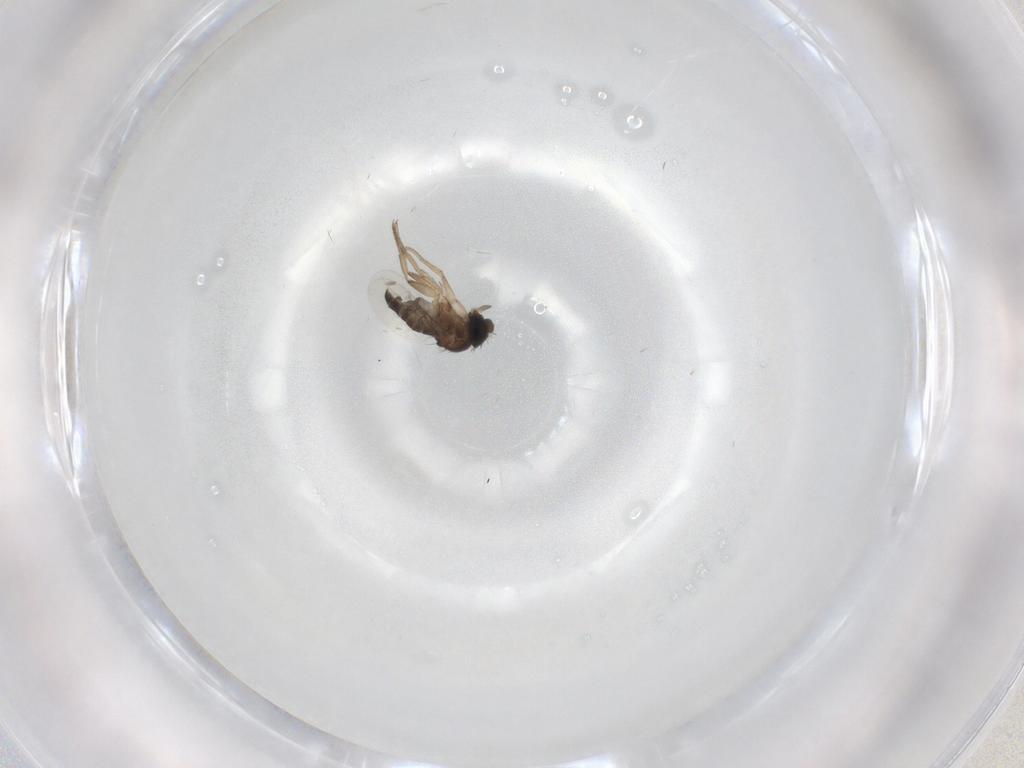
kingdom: Animalia
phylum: Arthropoda
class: Insecta
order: Diptera
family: Phoridae
